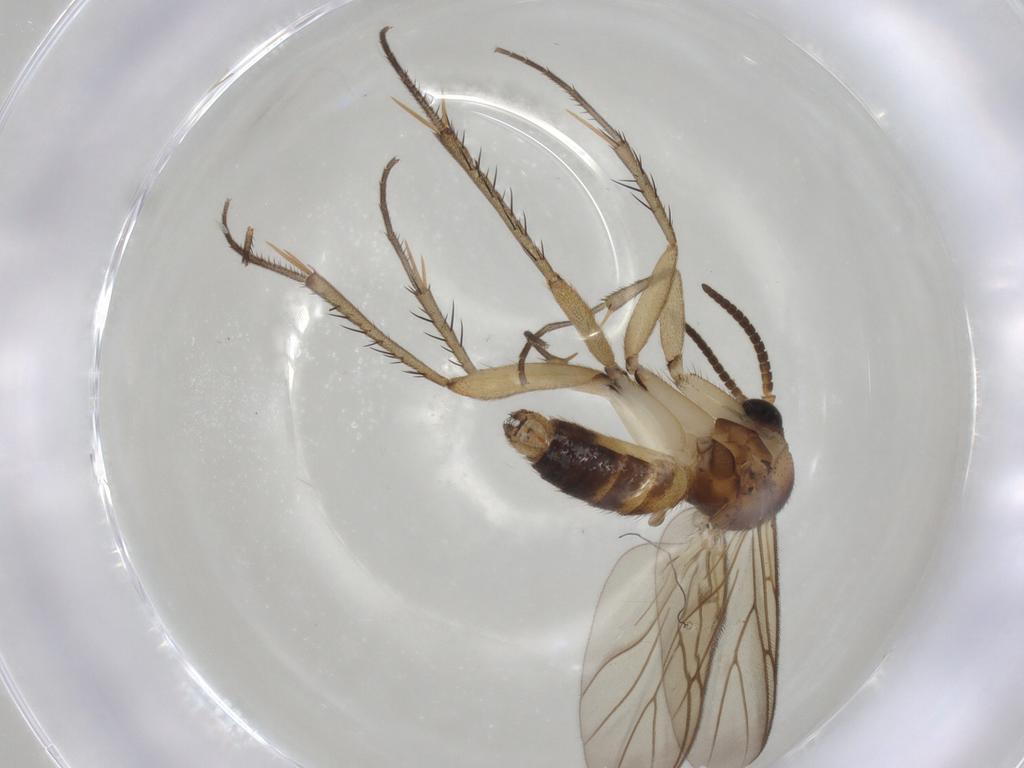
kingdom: Animalia
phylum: Arthropoda
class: Insecta
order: Diptera
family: Mycetophilidae
